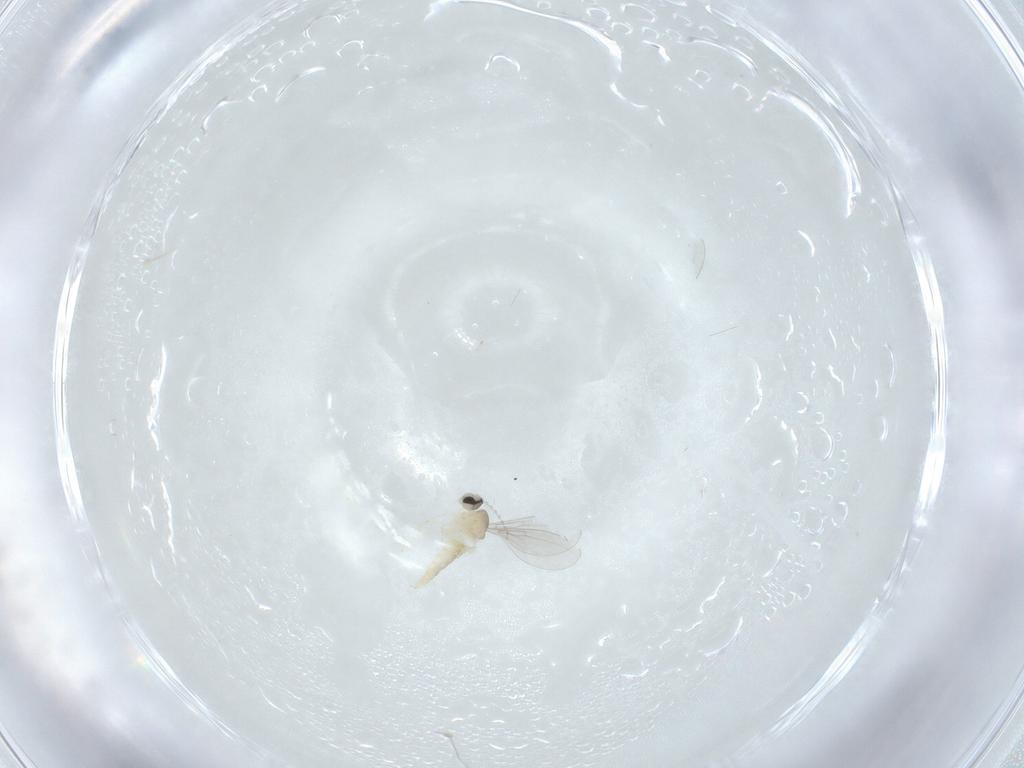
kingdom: Animalia
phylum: Arthropoda
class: Insecta
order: Diptera
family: Cecidomyiidae
